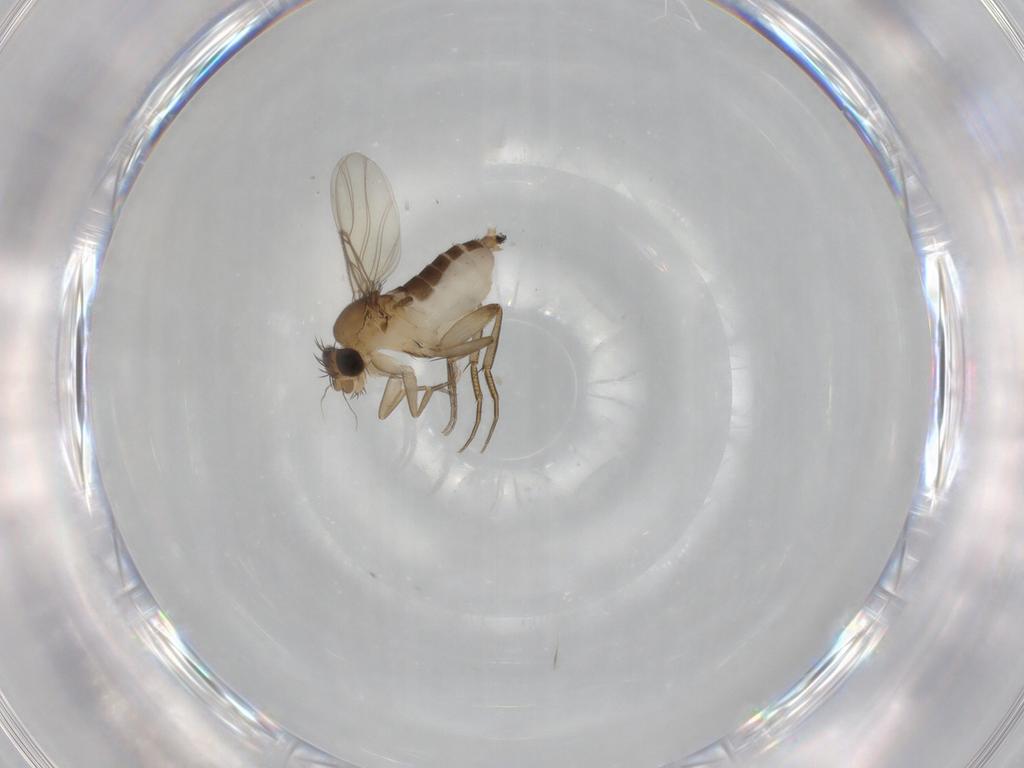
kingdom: Animalia
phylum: Arthropoda
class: Insecta
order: Diptera
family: Phoridae
